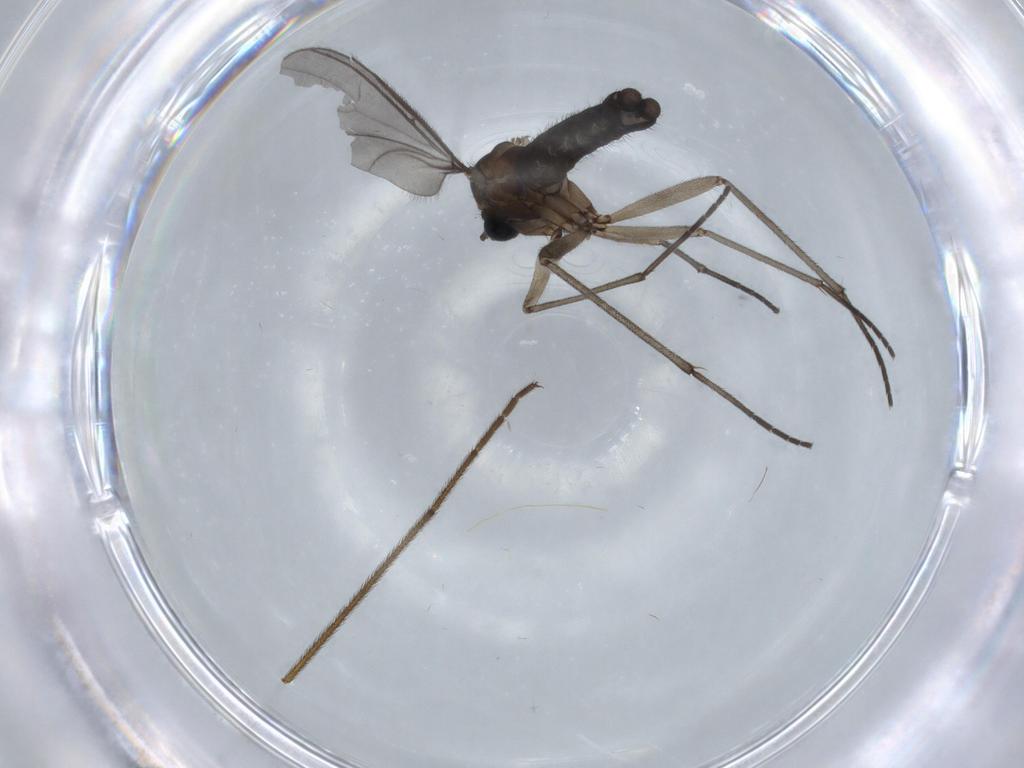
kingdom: Animalia
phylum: Arthropoda
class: Insecta
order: Diptera
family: Sciaridae
